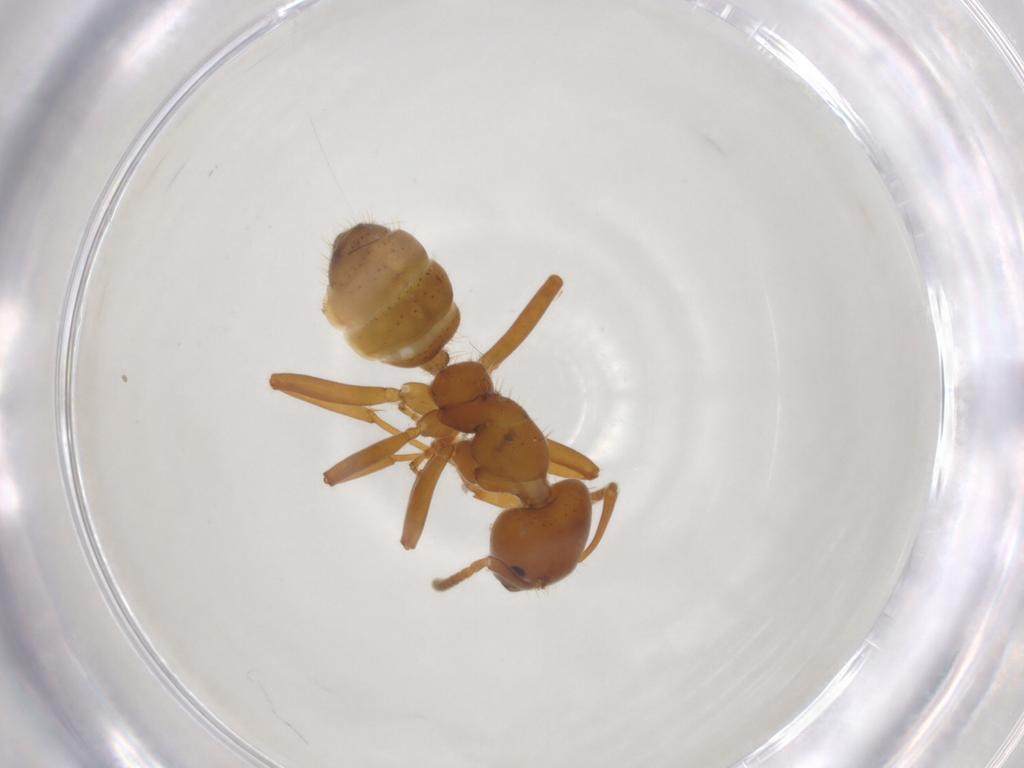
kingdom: Animalia
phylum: Arthropoda
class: Insecta
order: Hymenoptera
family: Formicidae
